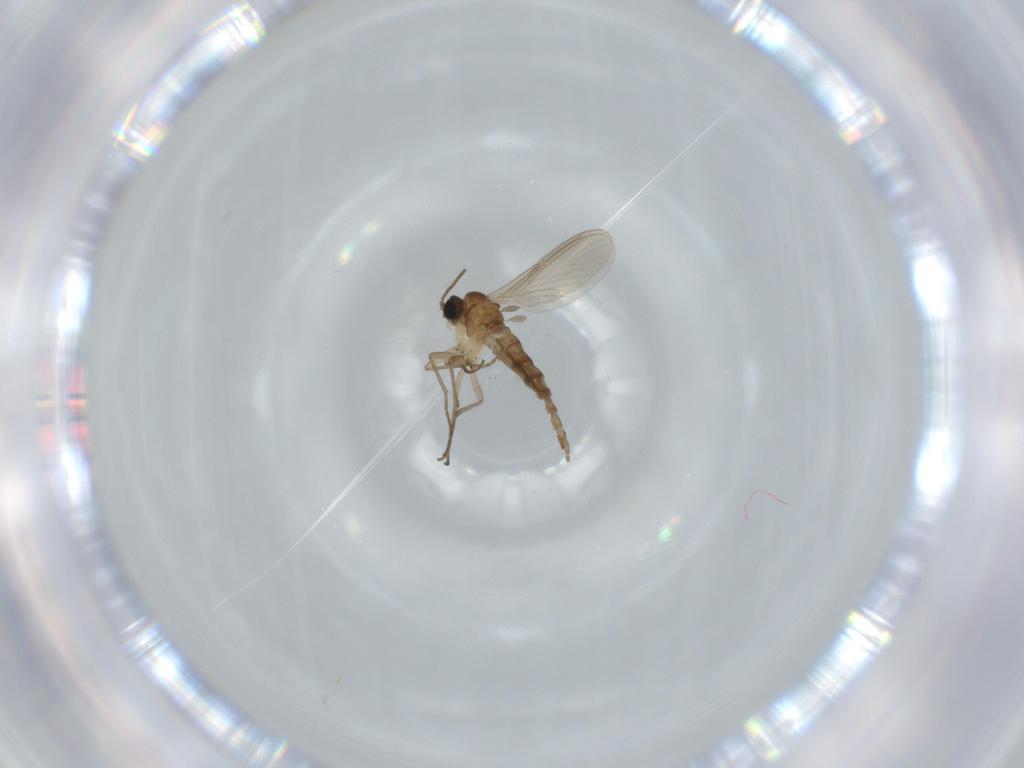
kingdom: Animalia
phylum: Arthropoda
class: Insecta
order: Diptera
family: Sciaridae
